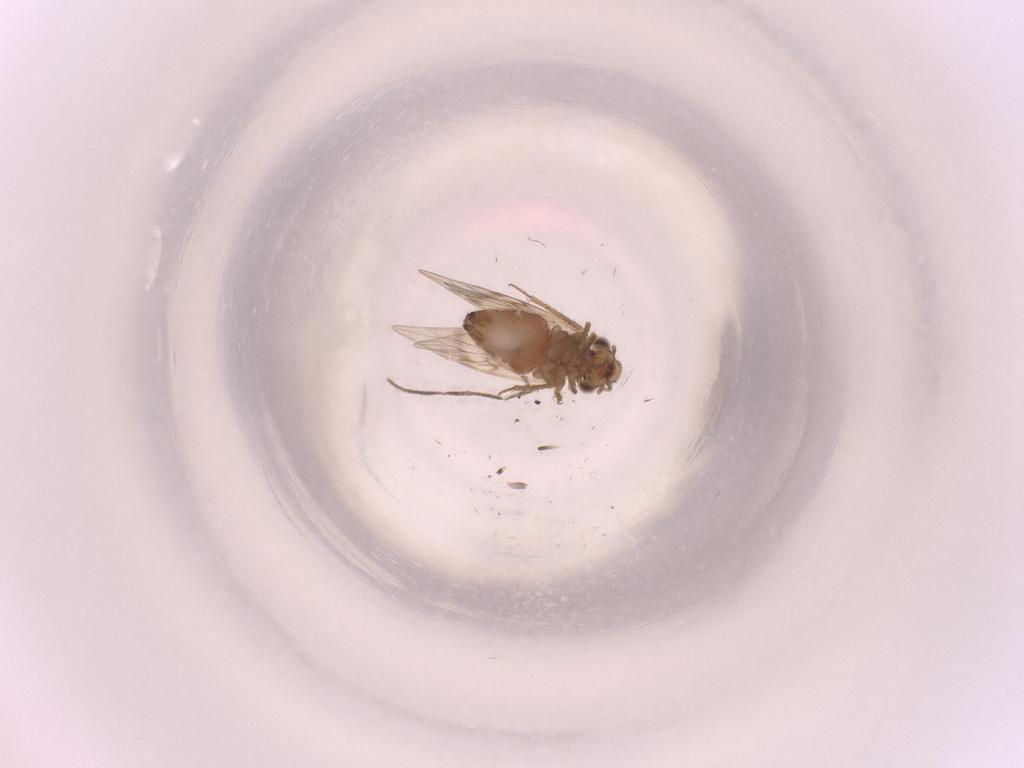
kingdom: Animalia
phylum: Arthropoda
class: Insecta
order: Psocodea
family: Lepidopsocidae
